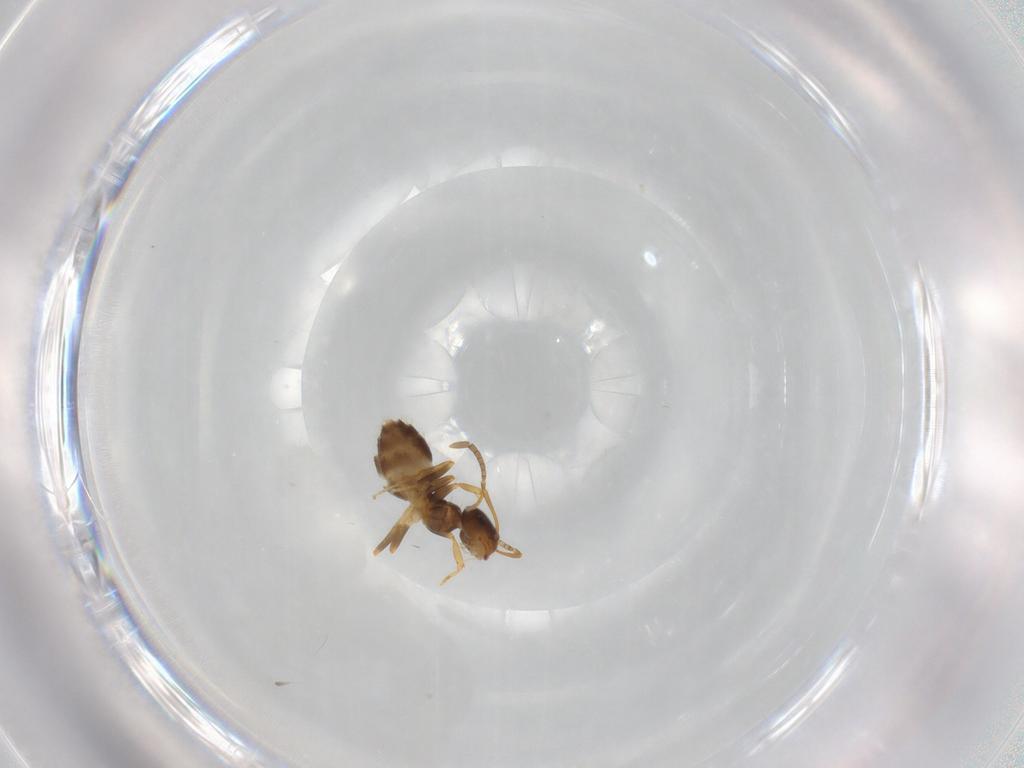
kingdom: Animalia
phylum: Arthropoda
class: Insecta
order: Hymenoptera
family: Formicidae
